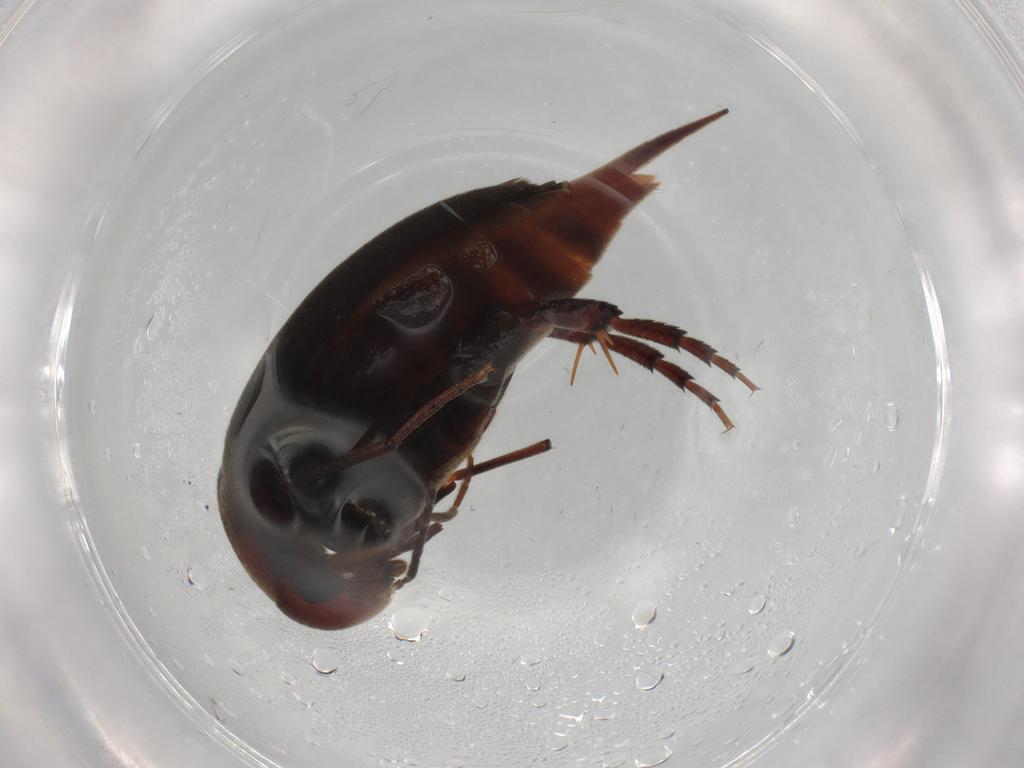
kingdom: Animalia
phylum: Arthropoda
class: Insecta
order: Coleoptera
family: Mordellidae
